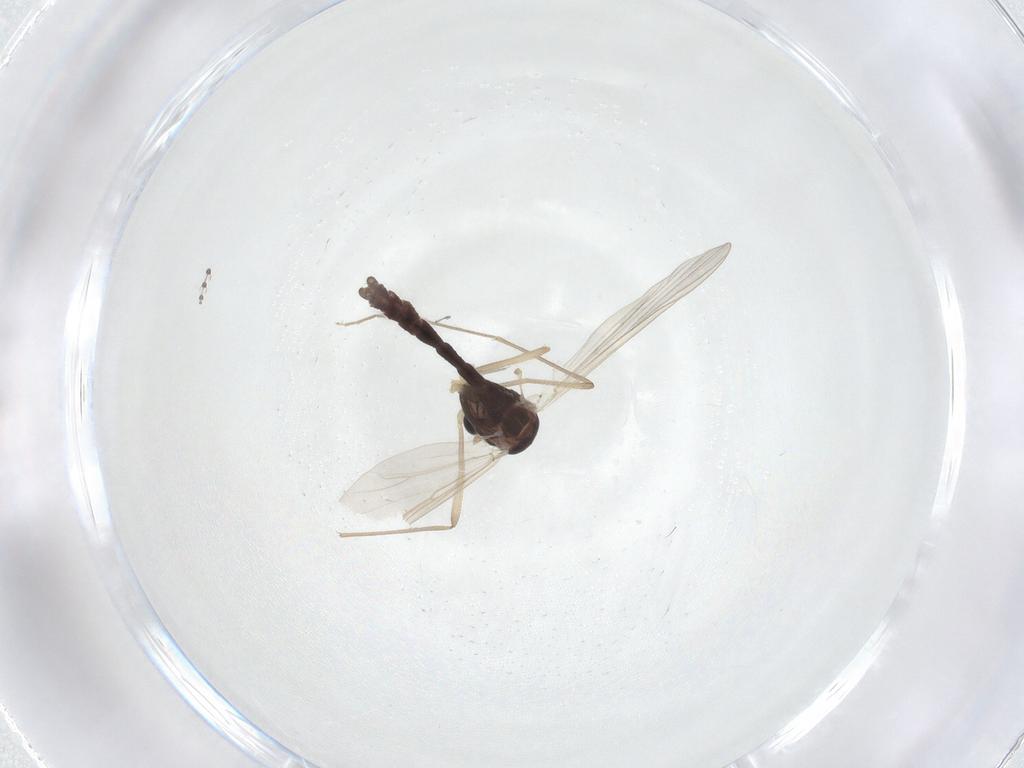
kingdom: Animalia
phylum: Arthropoda
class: Insecta
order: Diptera
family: Chironomidae
